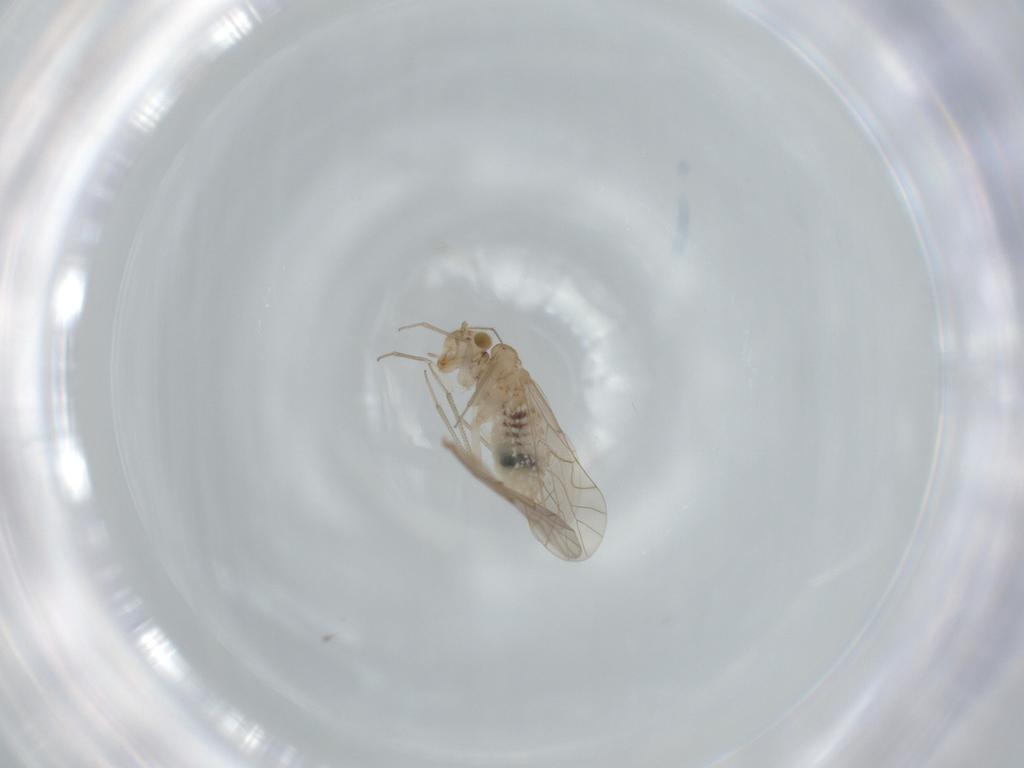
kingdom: Animalia
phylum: Arthropoda
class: Insecta
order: Psocodea
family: Lachesillidae
